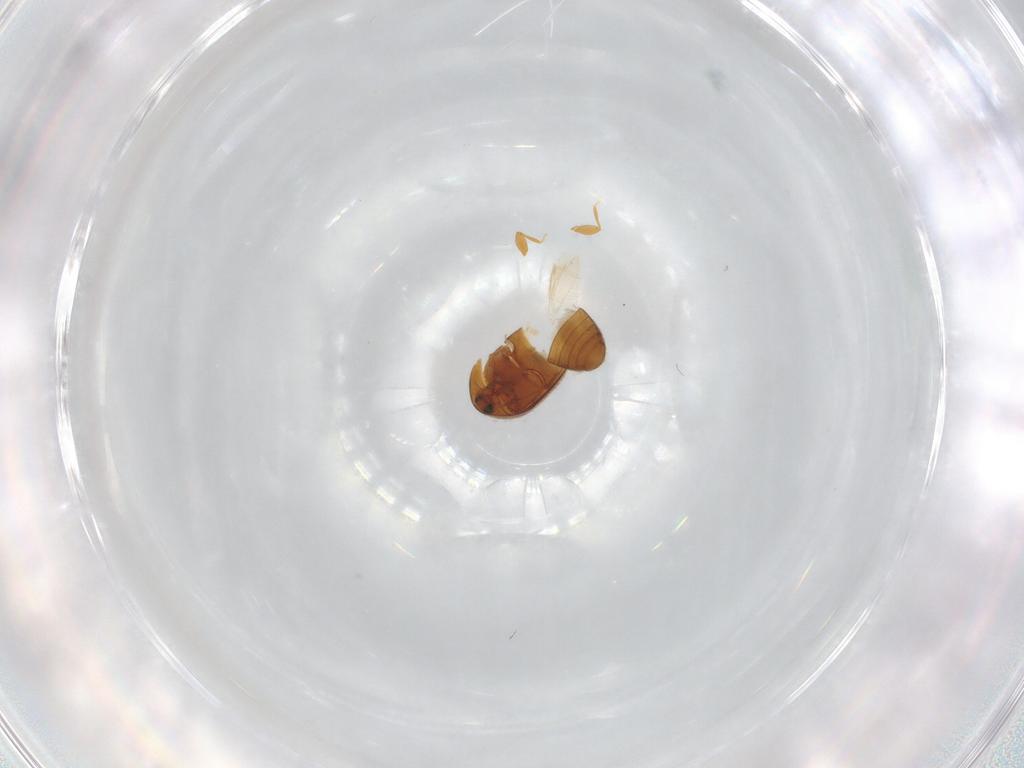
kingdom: Animalia
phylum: Arthropoda
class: Insecta
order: Coleoptera
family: Corylophidae
